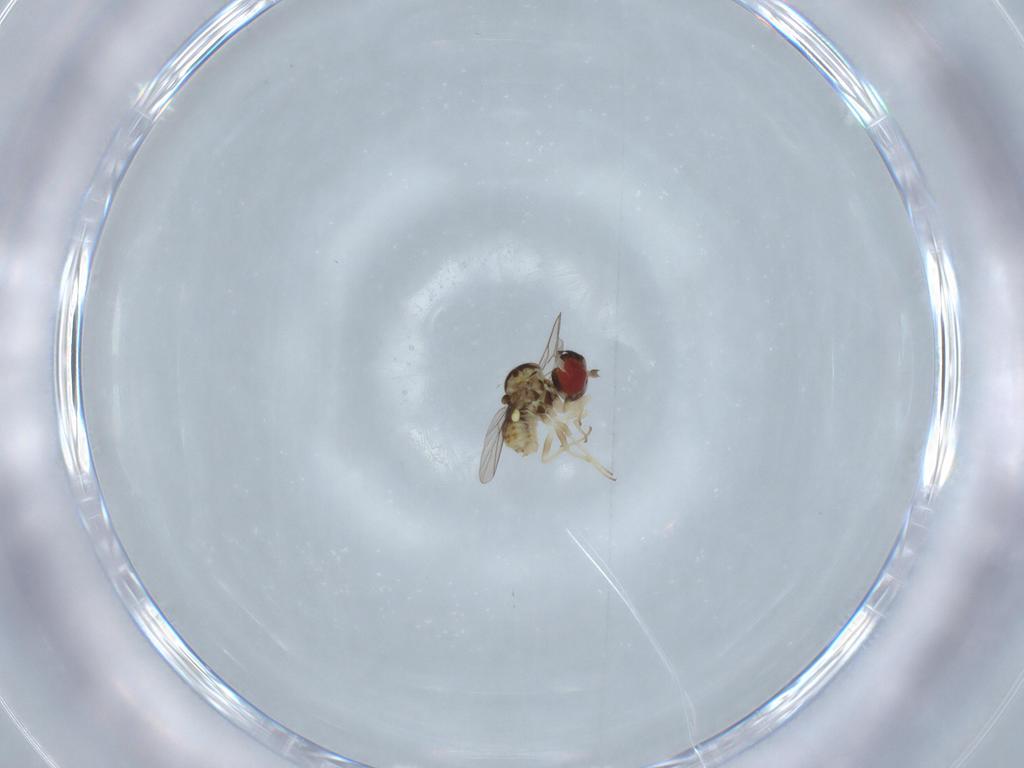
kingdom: Animalia
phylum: Arthropoda
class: Insecta
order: Diptera
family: Bombyliidae
